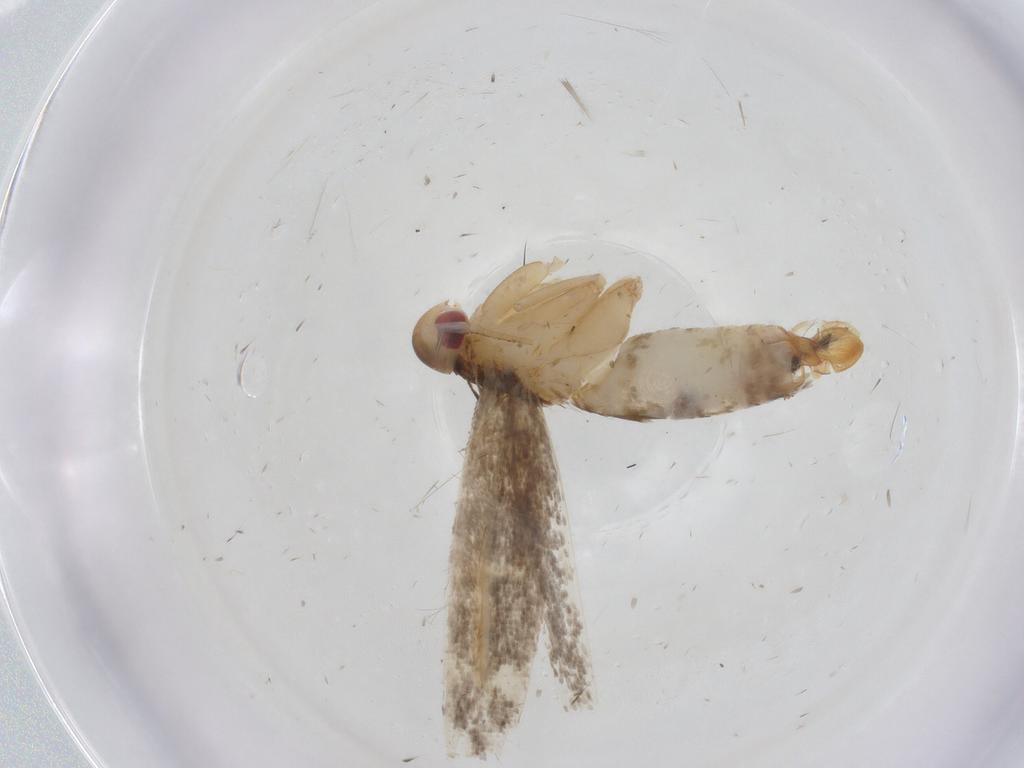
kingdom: Animalia
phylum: Arthropoda
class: Insecta
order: Lepidoptera
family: Cosmopterigidae
